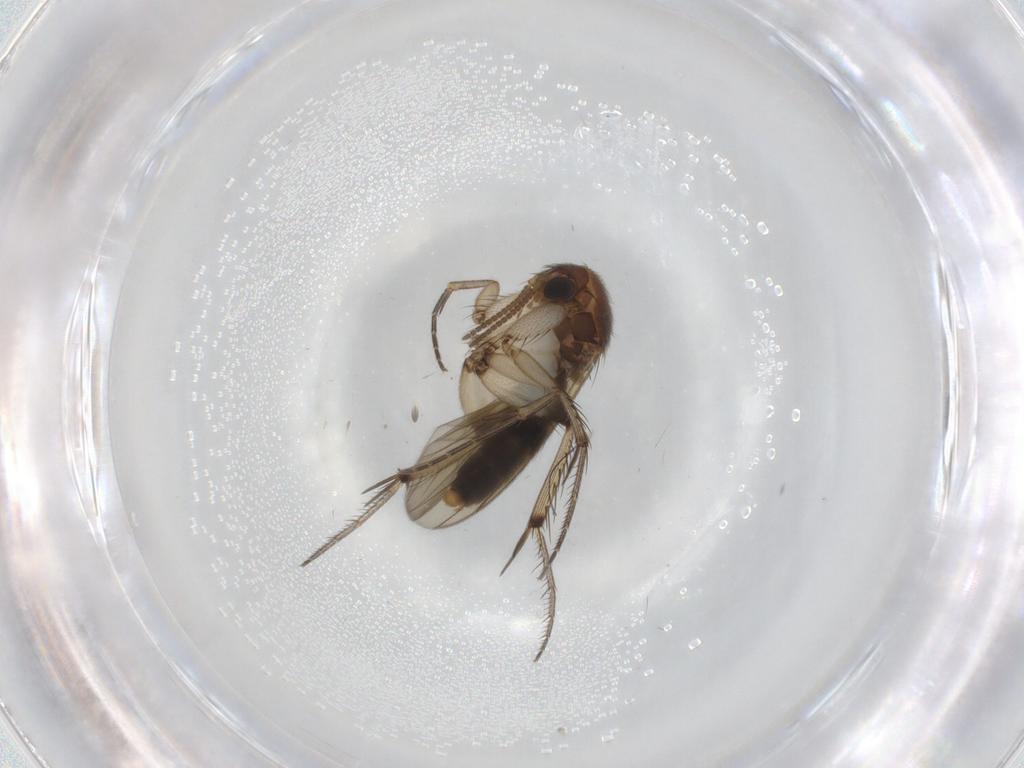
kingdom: Animalia
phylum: Arthropoda
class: Insecta
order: Diptera
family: Mycetophilidae
